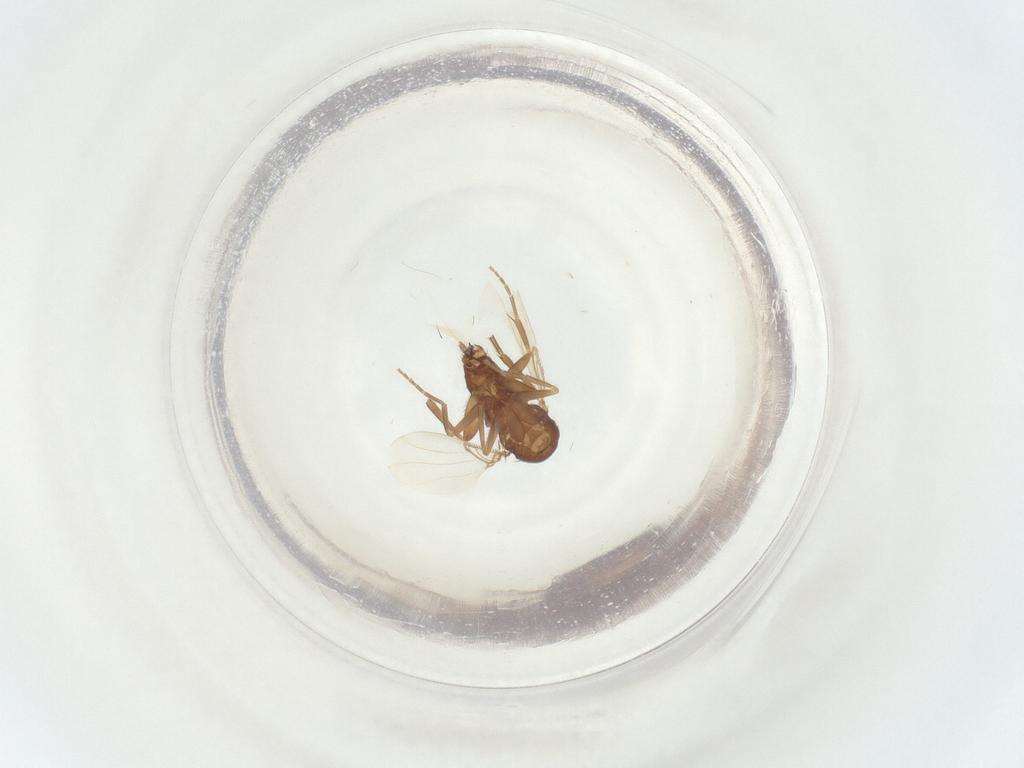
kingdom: Animalia
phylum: Arthropoda
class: Insecta
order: Diptera
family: Phoridae
